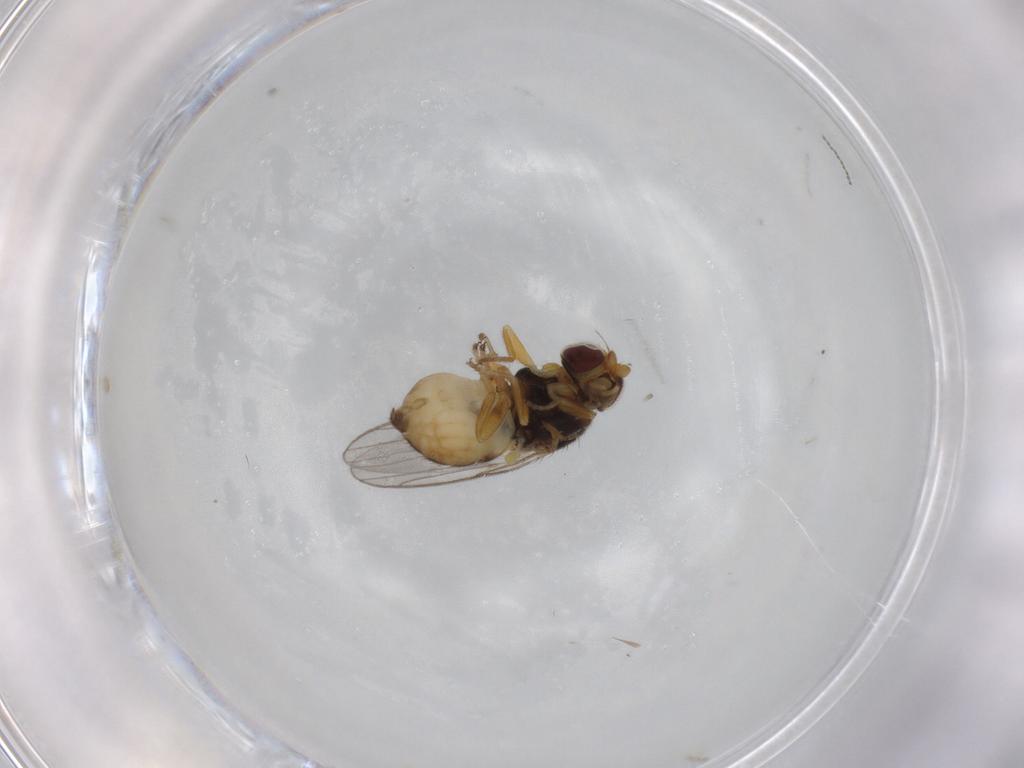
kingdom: Animalia
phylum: Arthropoda
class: Insecta
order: Diptera
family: Chloropidae
